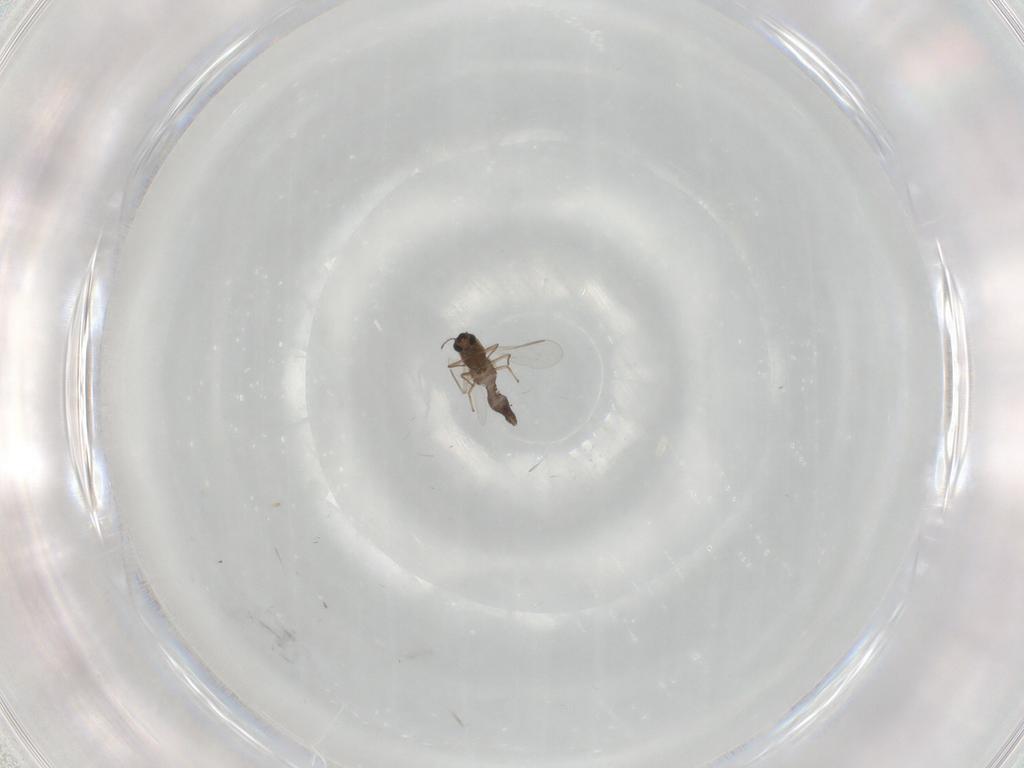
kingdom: Animalia
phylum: Arthropoda
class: Insecta
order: Diptera
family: Chironomidae
